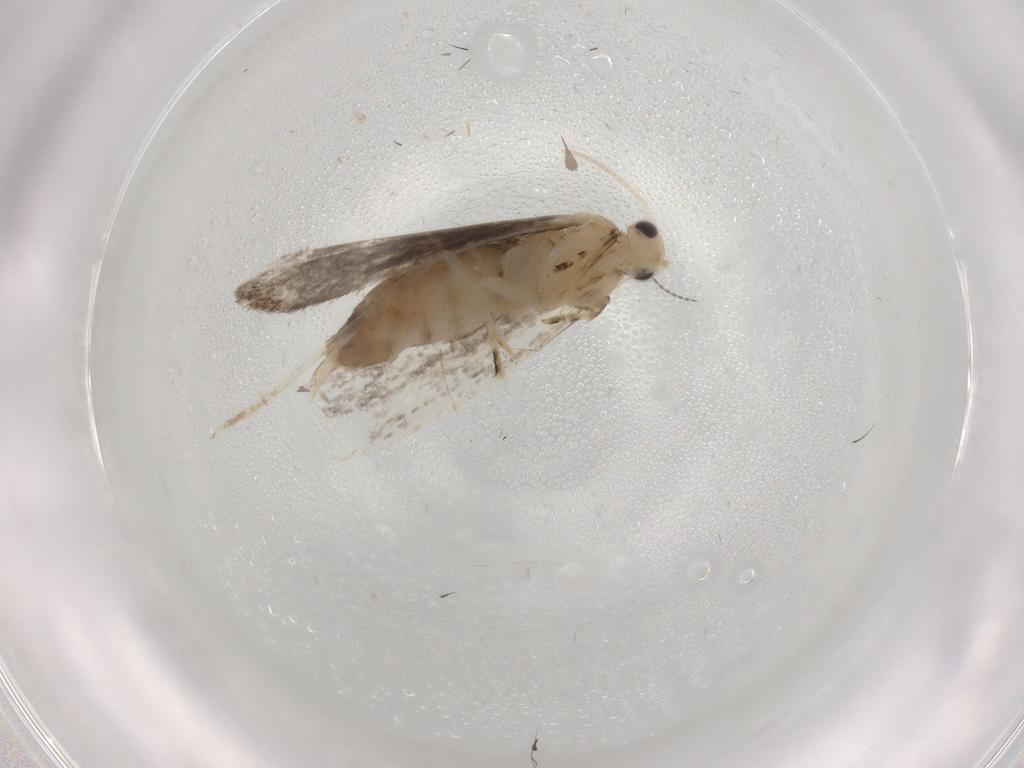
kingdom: Animalia
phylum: Arthropoda
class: Insecta
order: Lepidoptera
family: Tineidae
